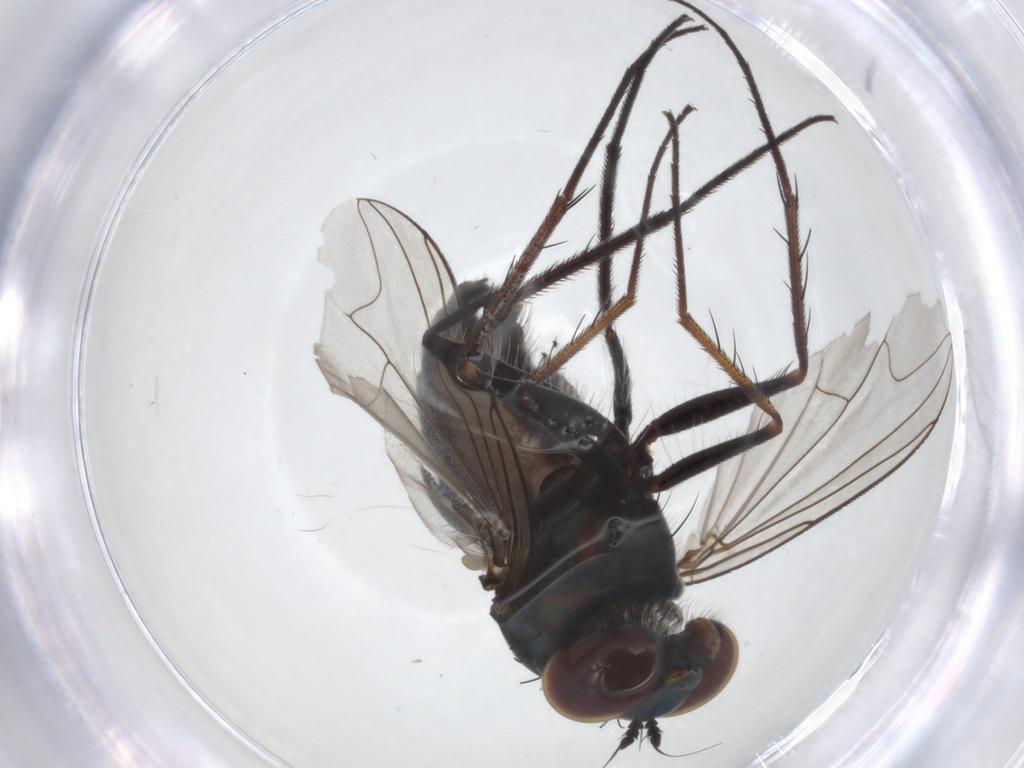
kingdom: Animalia
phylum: Arthropoda
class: Insecta
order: Diptera
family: Dolichopodidae
